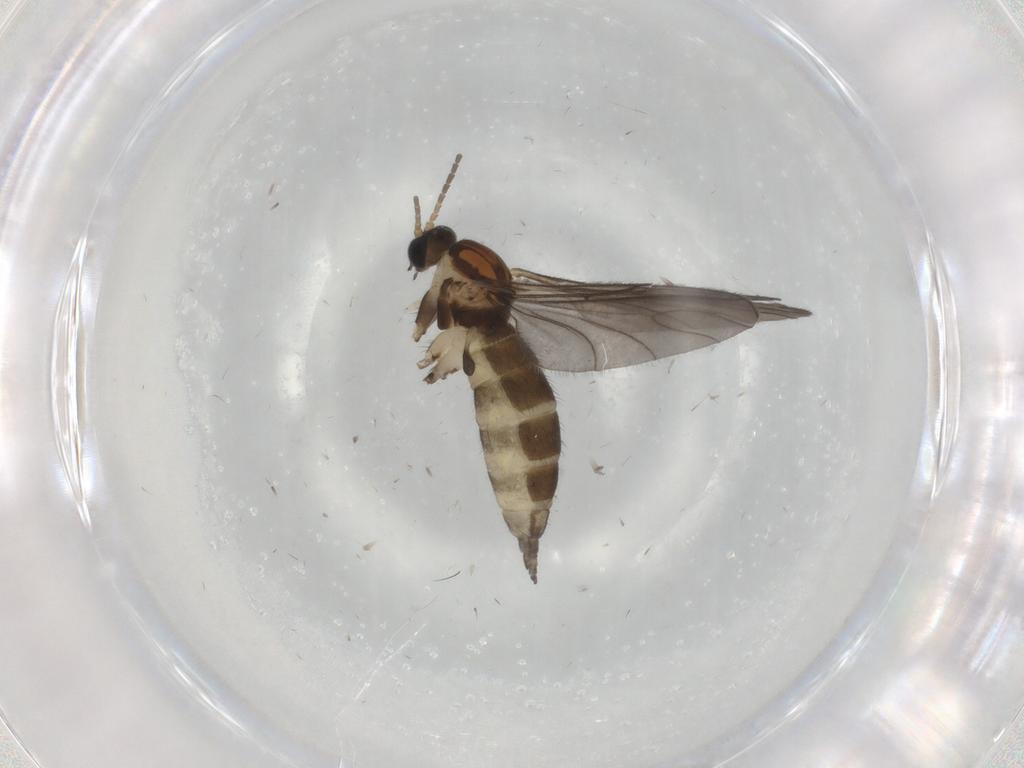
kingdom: Animalia
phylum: Arthropoda
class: Insecta
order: Diptera
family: Sciaridae
